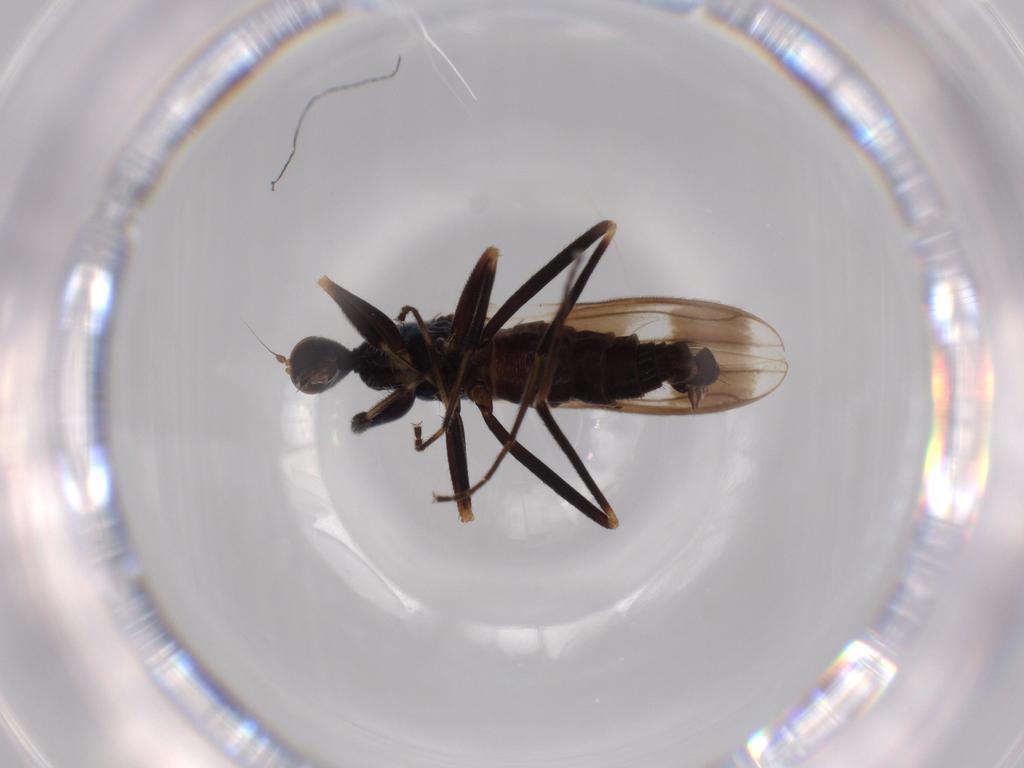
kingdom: Animalia
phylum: Arthropoda
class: Insecta
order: Diptera
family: Hybotidae
